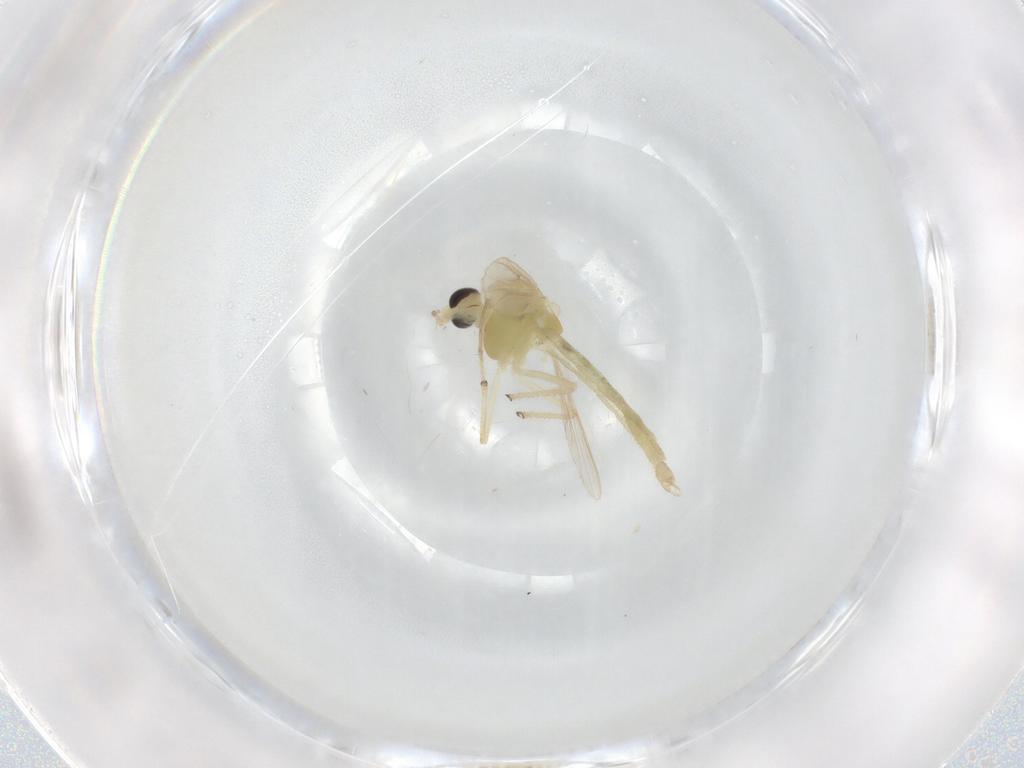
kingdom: Animalia
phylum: Arthropoda
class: Insecta
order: Diptera
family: Chironomidae
